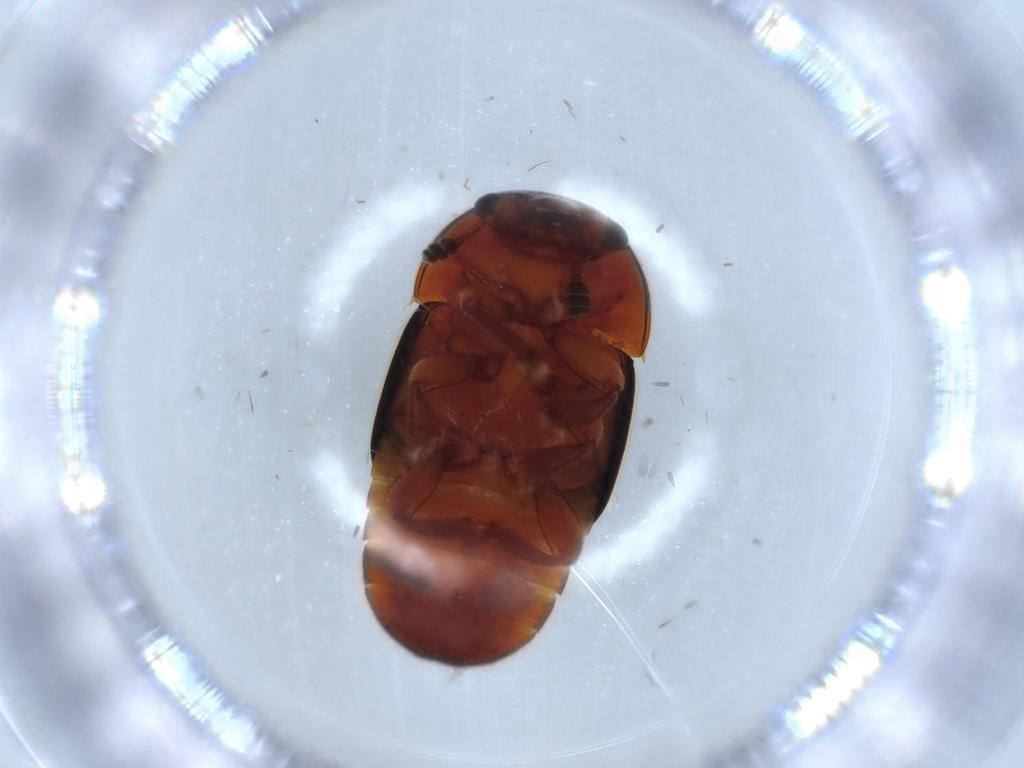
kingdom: Animalia
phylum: Arthropoda
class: Insecta
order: Coleoptera
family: Nitidulidae
